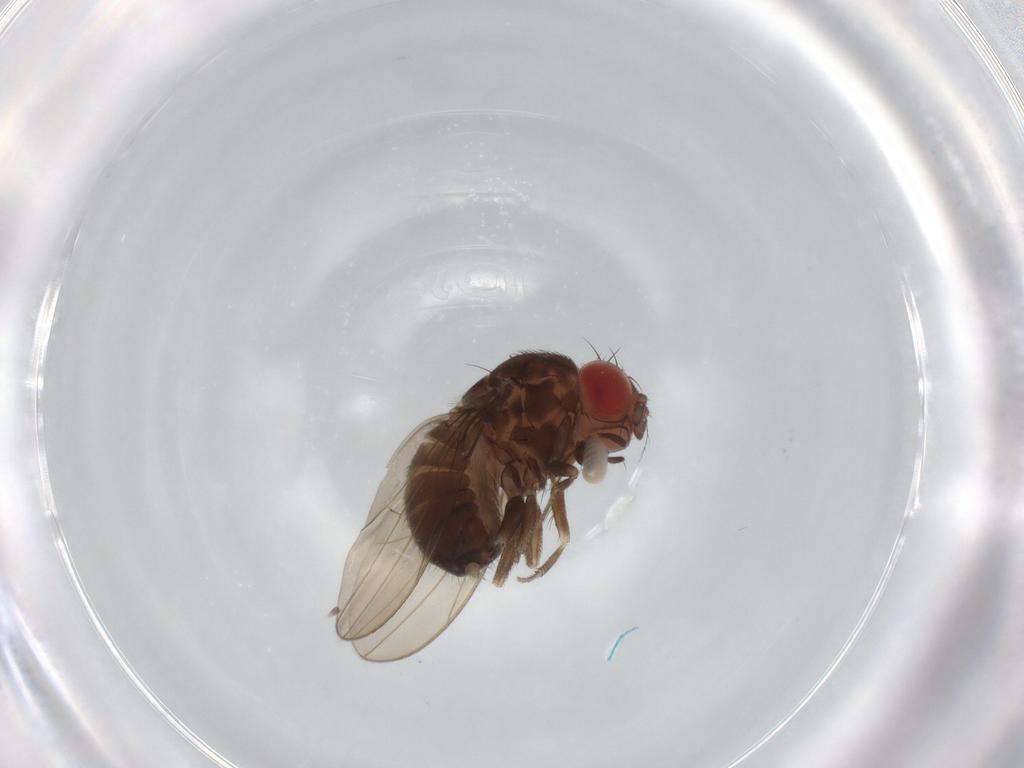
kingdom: Animalia
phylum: Arthropoda
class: Insecta
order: Diptera
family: Drosophilidae
